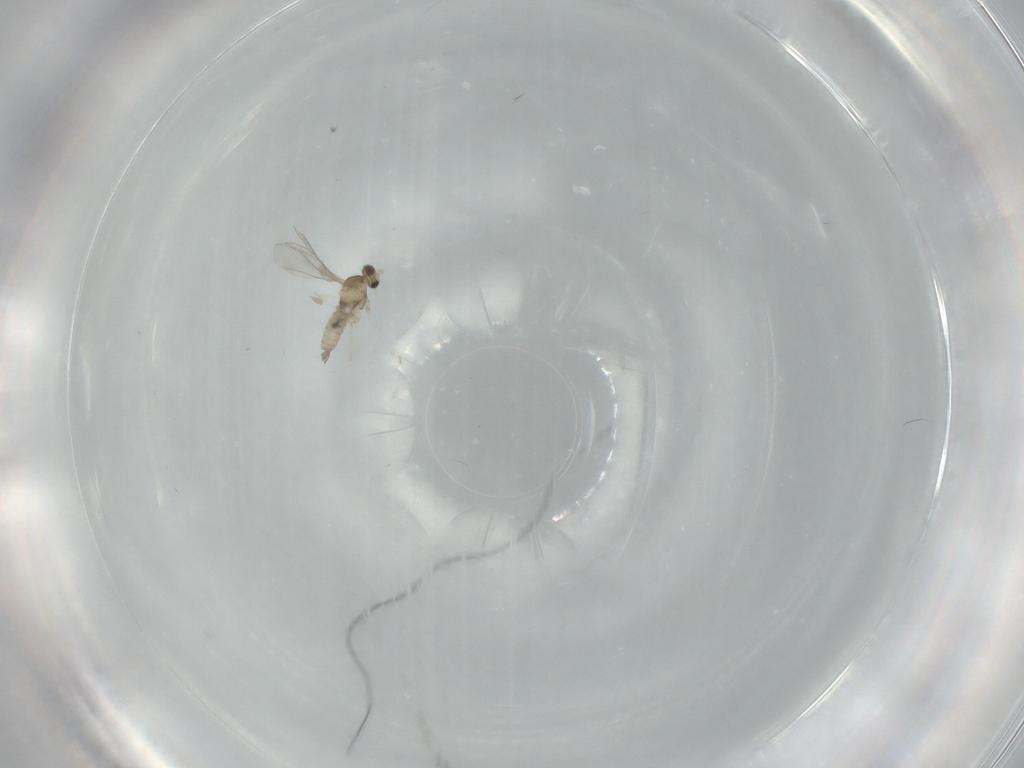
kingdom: Animalia
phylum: Arthropoda
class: Insecta
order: Diptera
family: Cecidomyiidae
